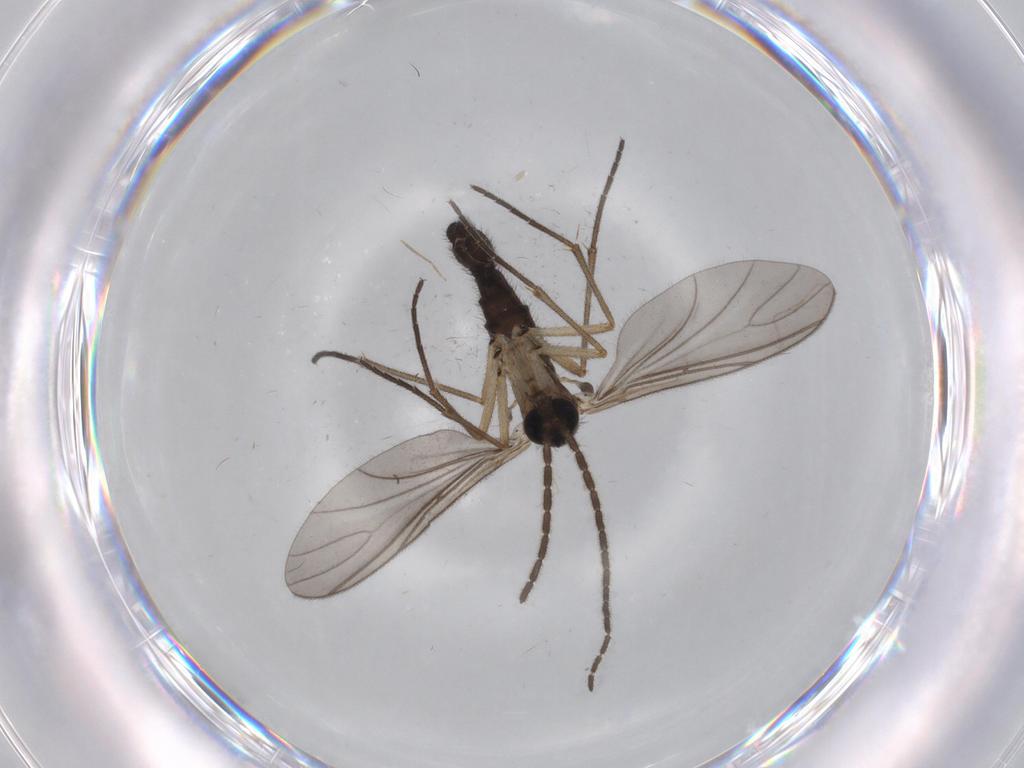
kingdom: Animalia
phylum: Arthropoda
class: Insecta
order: Diptera
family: Sciaridae
